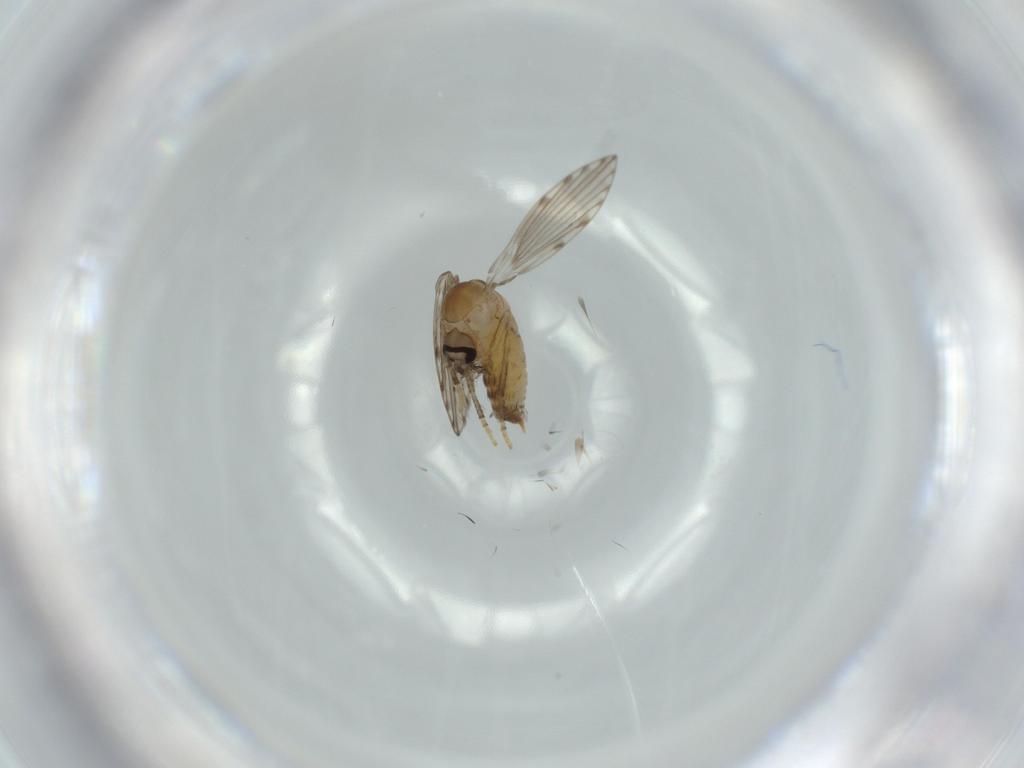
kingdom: Animalia
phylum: Arthropoda
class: Insecta
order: Diptera
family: Psychodidae
